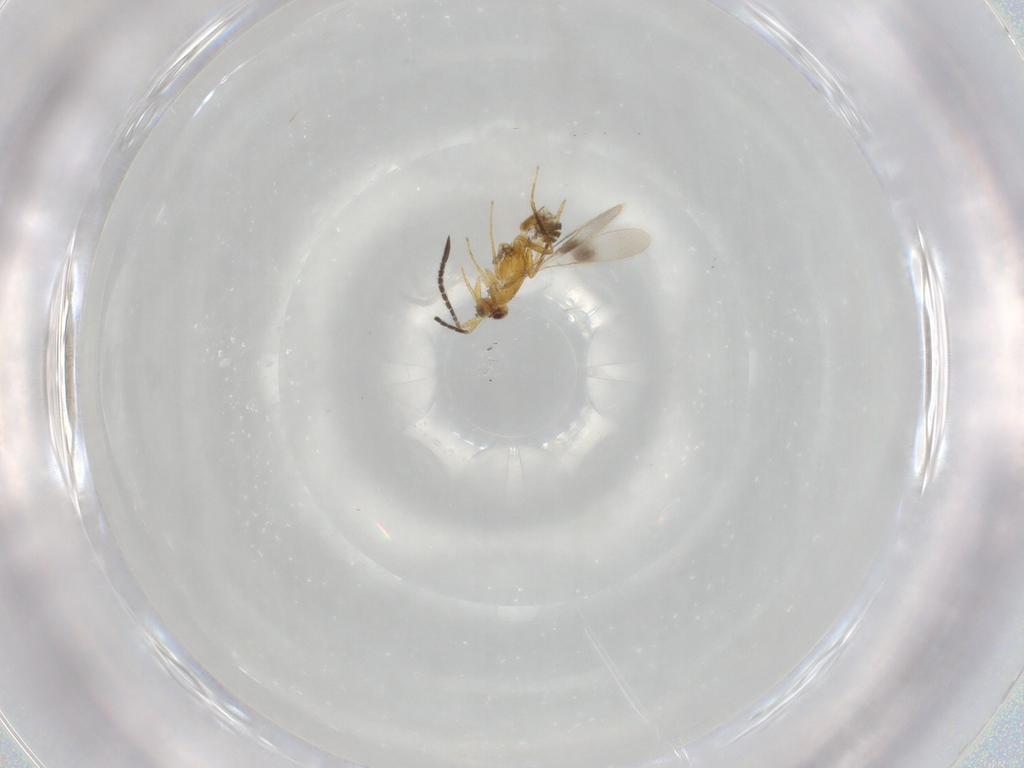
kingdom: Animalia
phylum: Arthropoda
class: Insecta
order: Hymenoptera
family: Mymaridae
